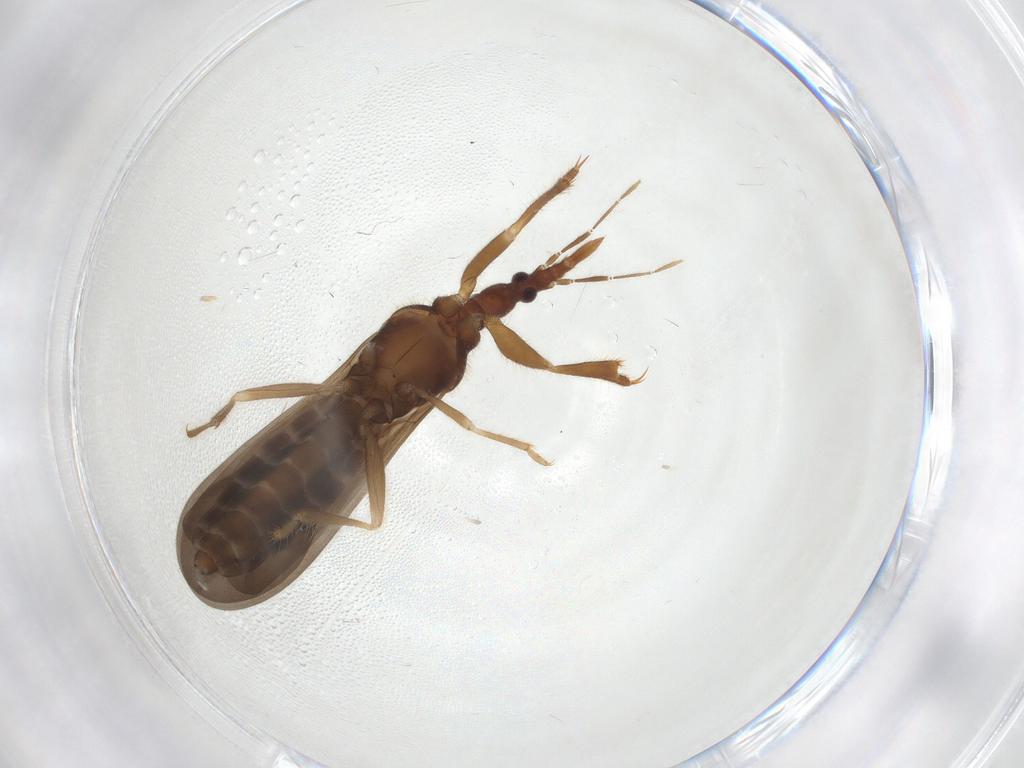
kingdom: Animalia
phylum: Arthropoda
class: Insecta
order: Hemiptera
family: Enicocephalidae
